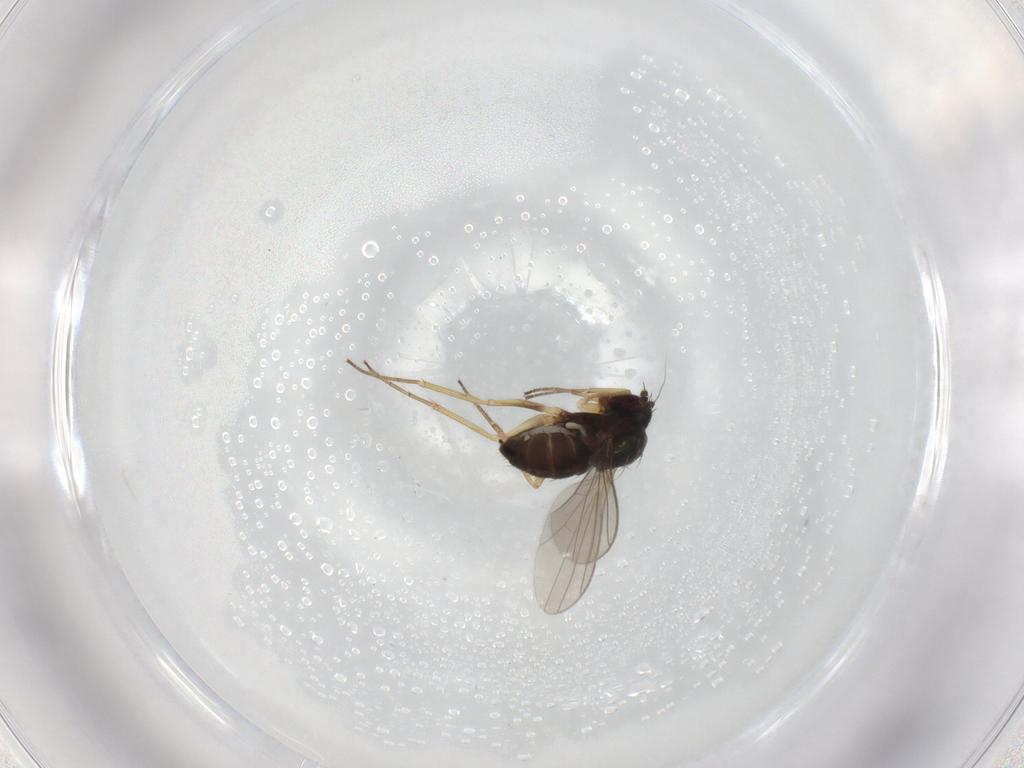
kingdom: Animalia
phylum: Arthropoda
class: Insecta
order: Diptera
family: Dolichopodidae
